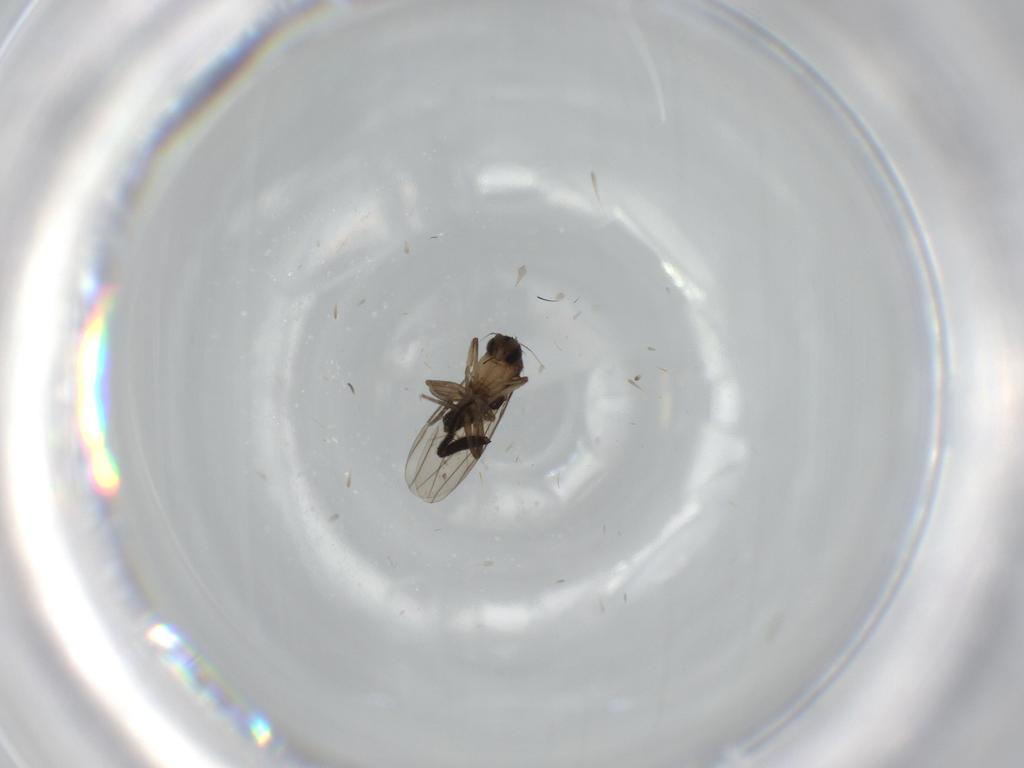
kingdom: Animalia
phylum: Arthropoda
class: Insecta
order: Diptera
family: Phoridae
